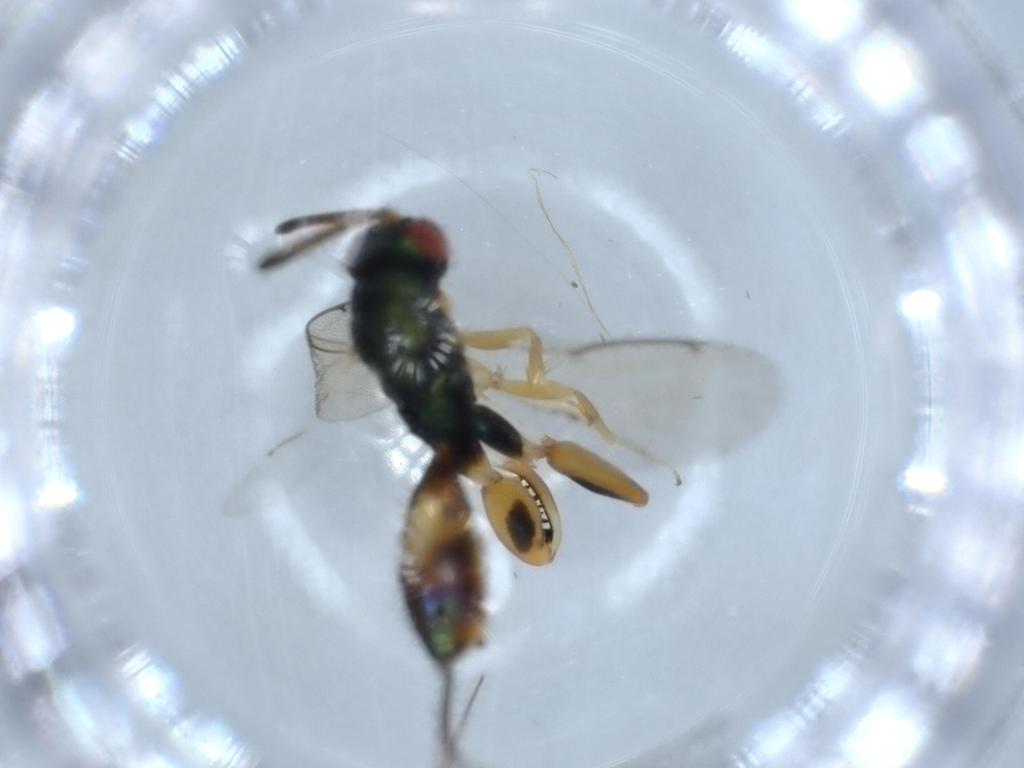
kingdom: Animalia
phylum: Arthropoda
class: Insecta
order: Hymenoptera
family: Torymidae
